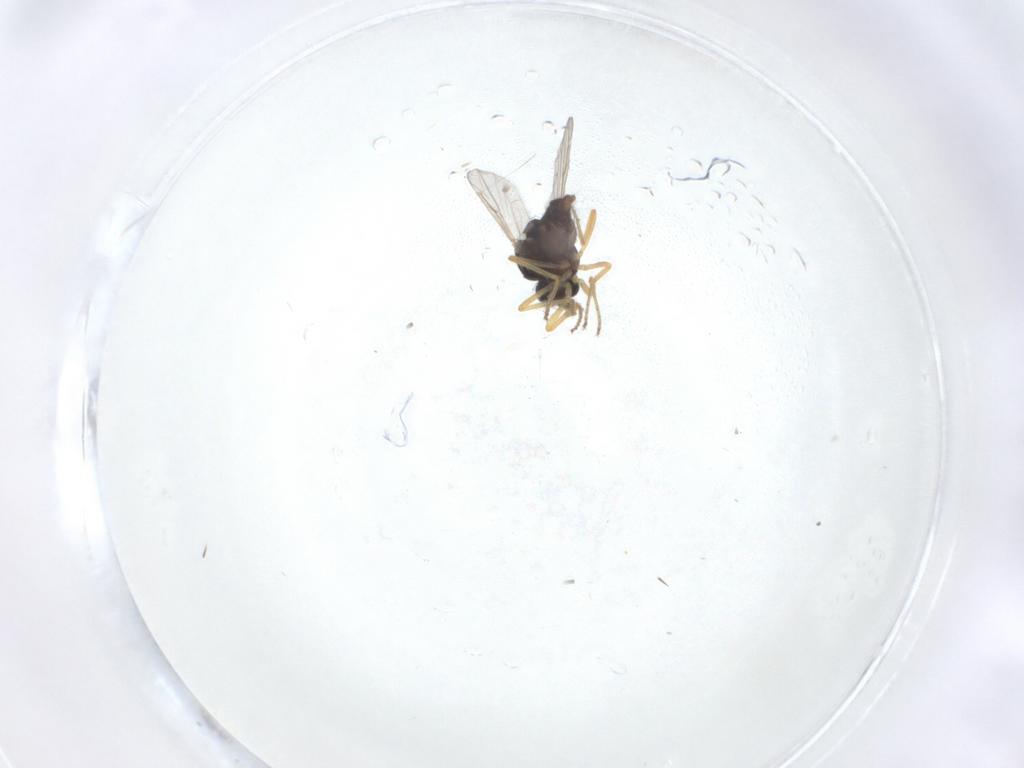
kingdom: Animalia
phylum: Arthropoda
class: Insecta
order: Diptera
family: Ceratopogonidae
